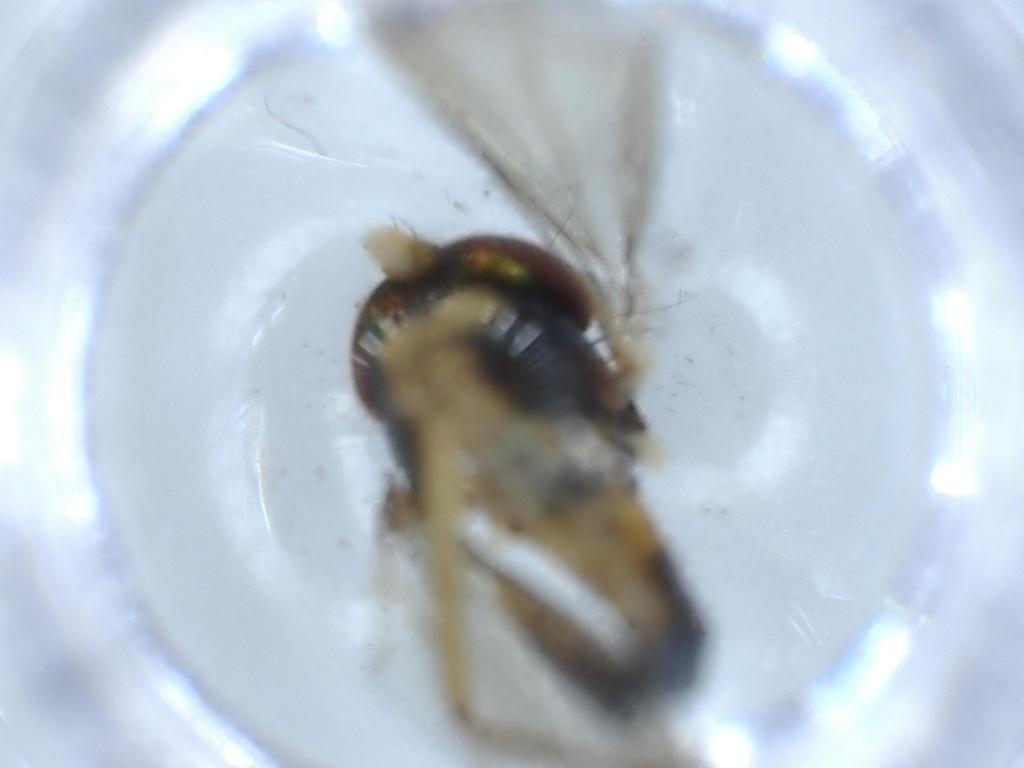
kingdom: Animalia
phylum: Arthropoda
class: Insecta
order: Diptera
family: Dolichopodidae
